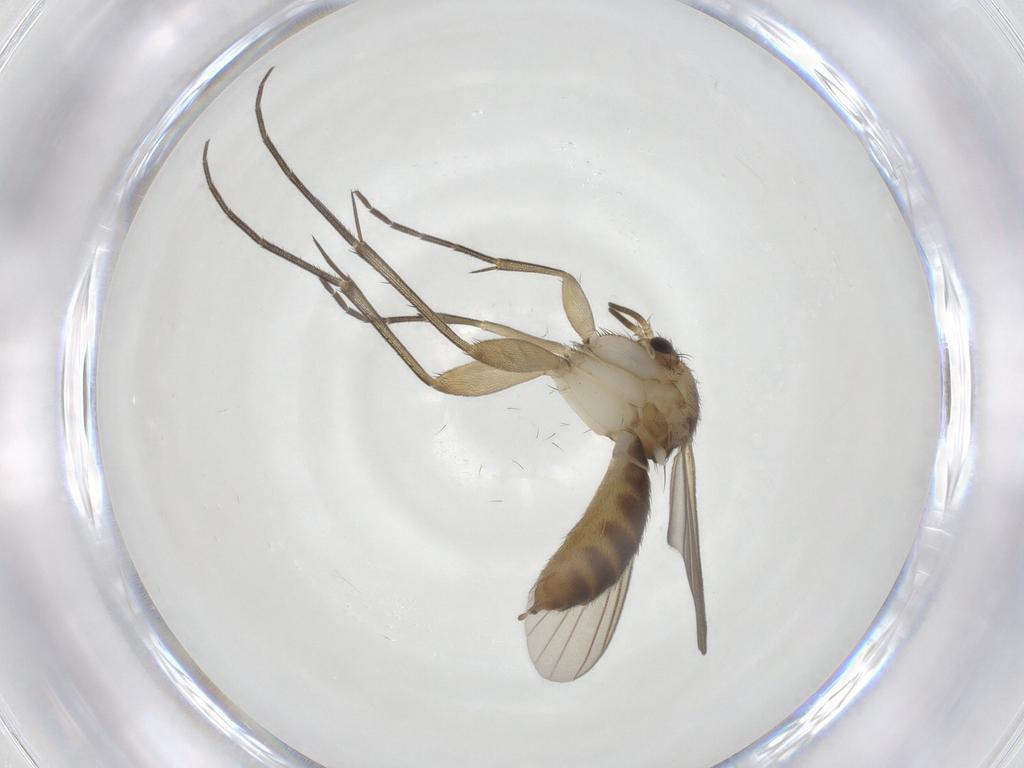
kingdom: Animalia
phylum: Arthropoda
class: Insecta
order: Diptera
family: Mycetophilidae
